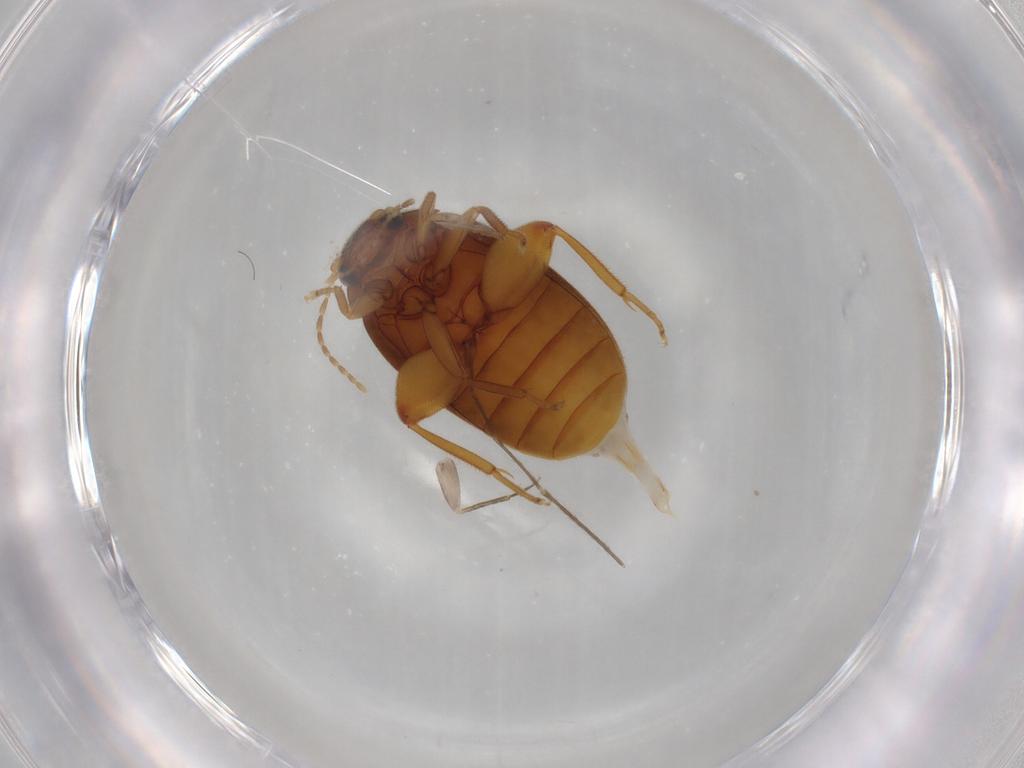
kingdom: Animalia
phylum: Arthropoda
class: Insecta
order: Coleoptera
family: Scirtidae
